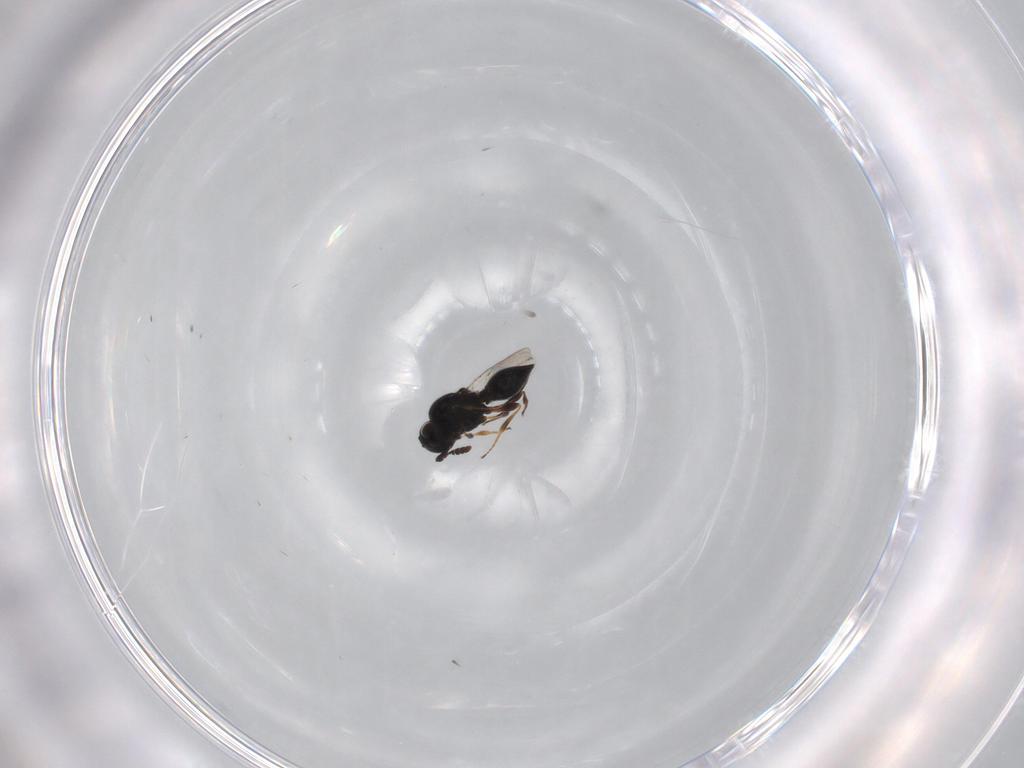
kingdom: Animalia
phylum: Arthropoda
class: Insecta
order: Hymenoptera
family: Platygastridae
